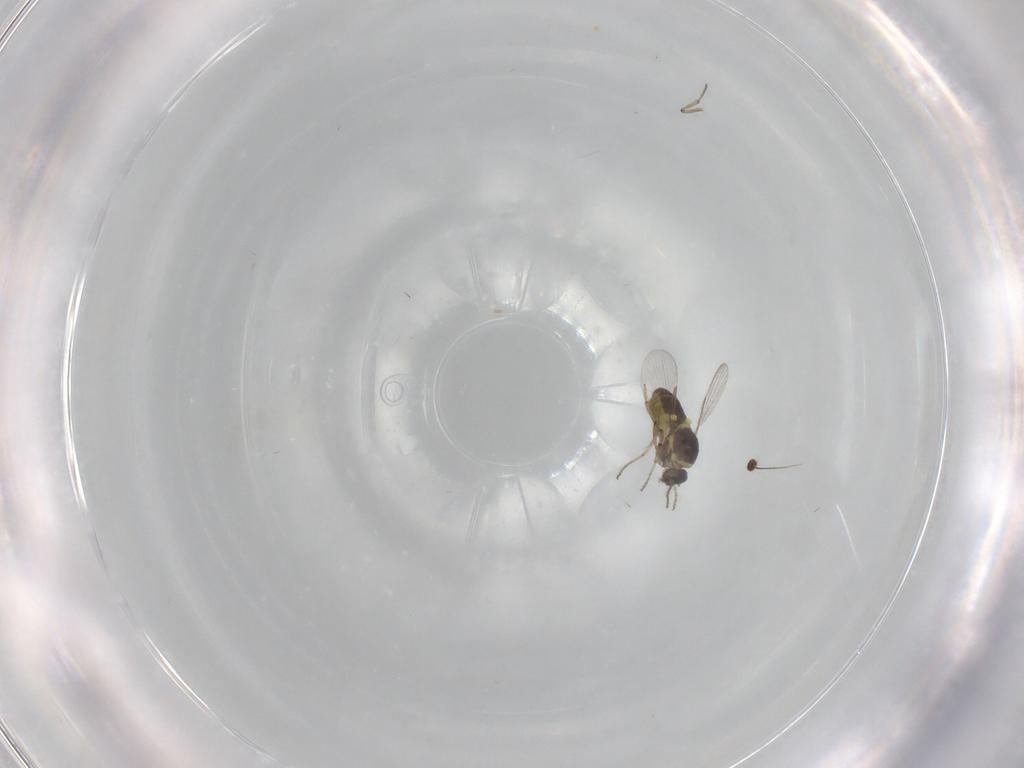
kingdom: Animalia
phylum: Arthropoda
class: Insecta
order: Diptera
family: Ceratopogonidae
